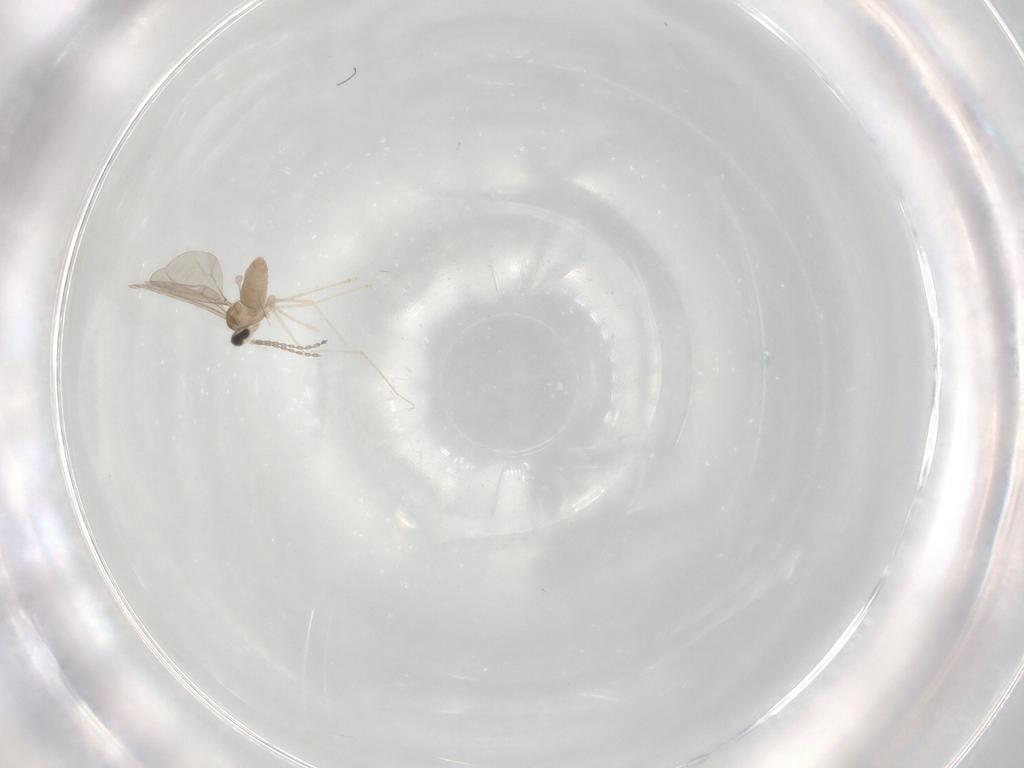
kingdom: Animalia
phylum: Arthropoda
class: Insecta
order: Diptera
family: Cecidomyiidae
